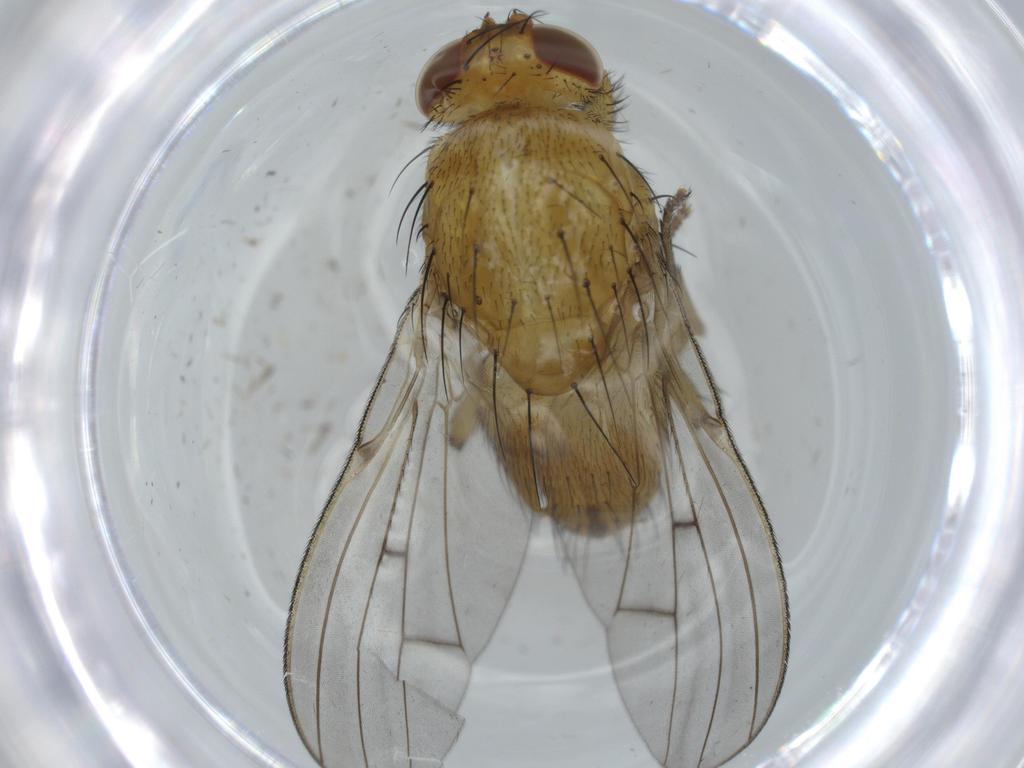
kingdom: Animalia
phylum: Arthropoda
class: Insecta
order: Diptera
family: Cecidomyiidae
